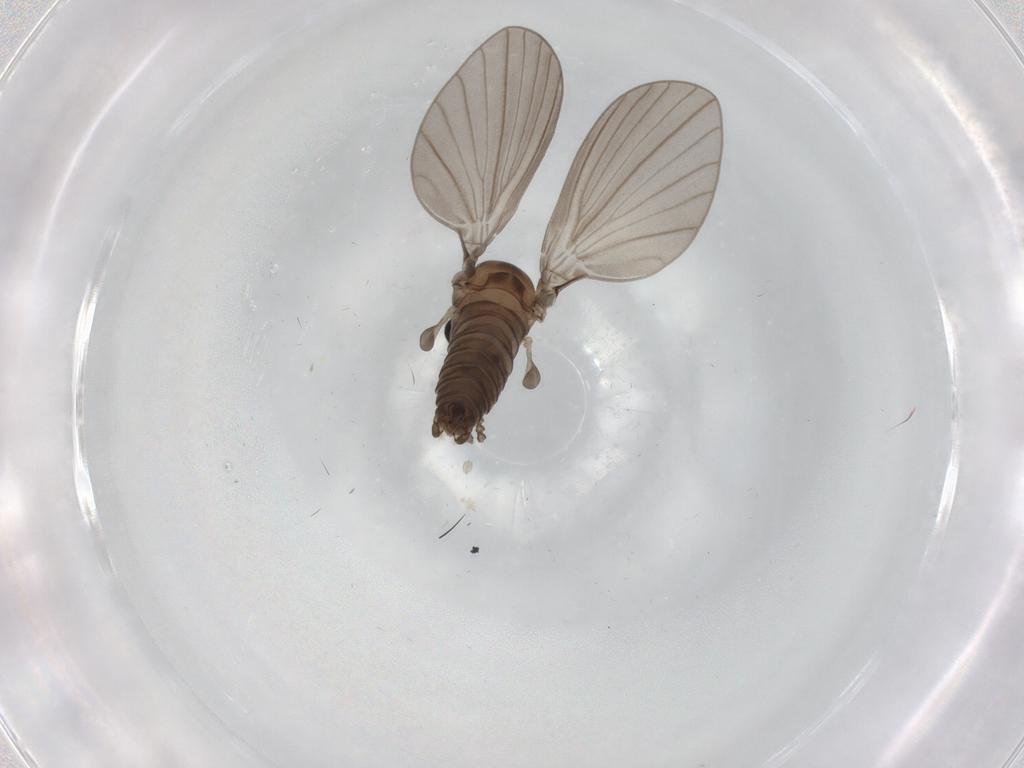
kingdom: Animalia
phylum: Arthropoda
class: Insecta
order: Diptera
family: Psychodidae
